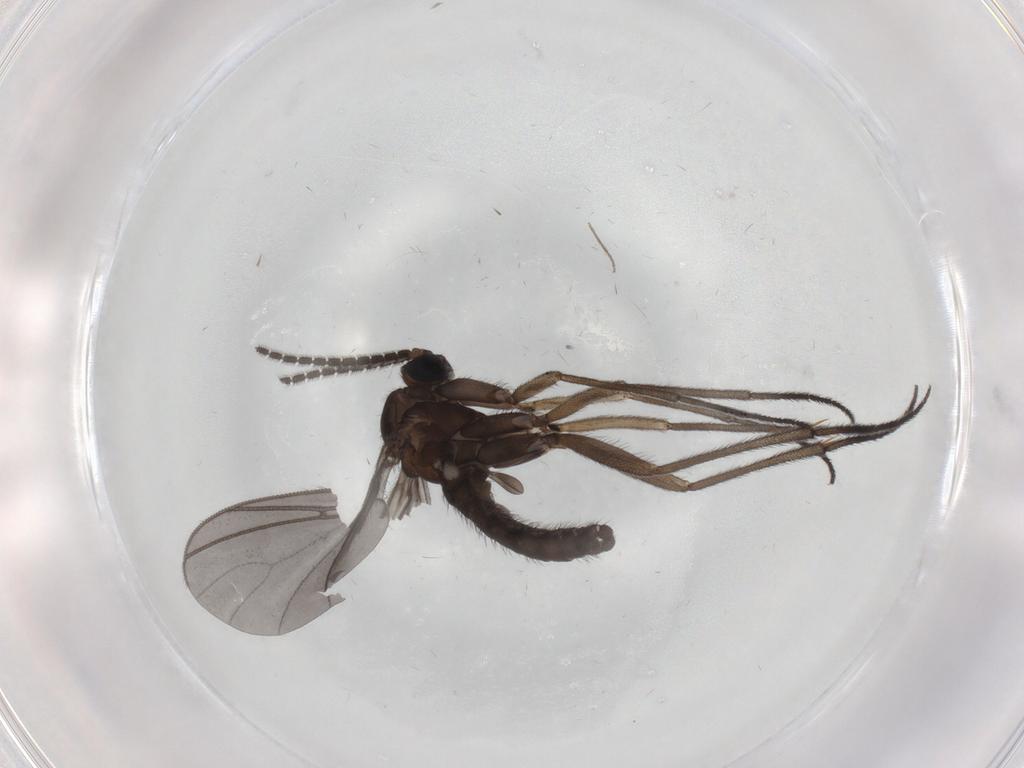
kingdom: Animalia
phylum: Arthropoda
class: Insecta
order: Diptera
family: Sciaridae
